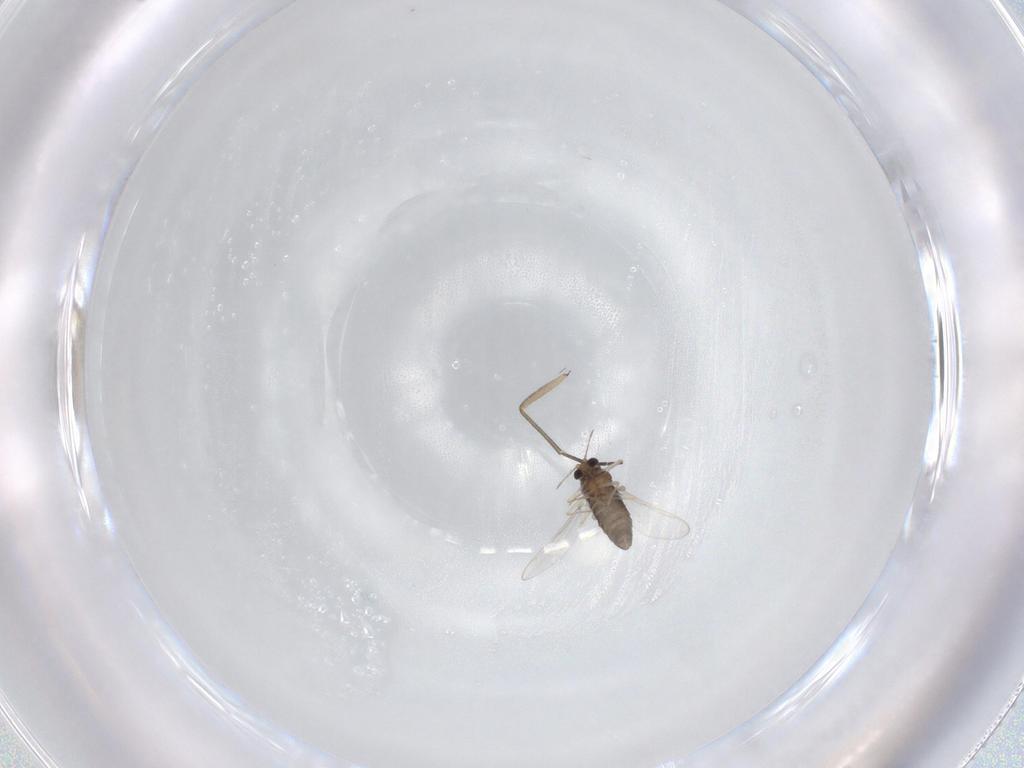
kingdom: Animalia
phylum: Arthropoda
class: Insecta
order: Diptera
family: Chironomidae
